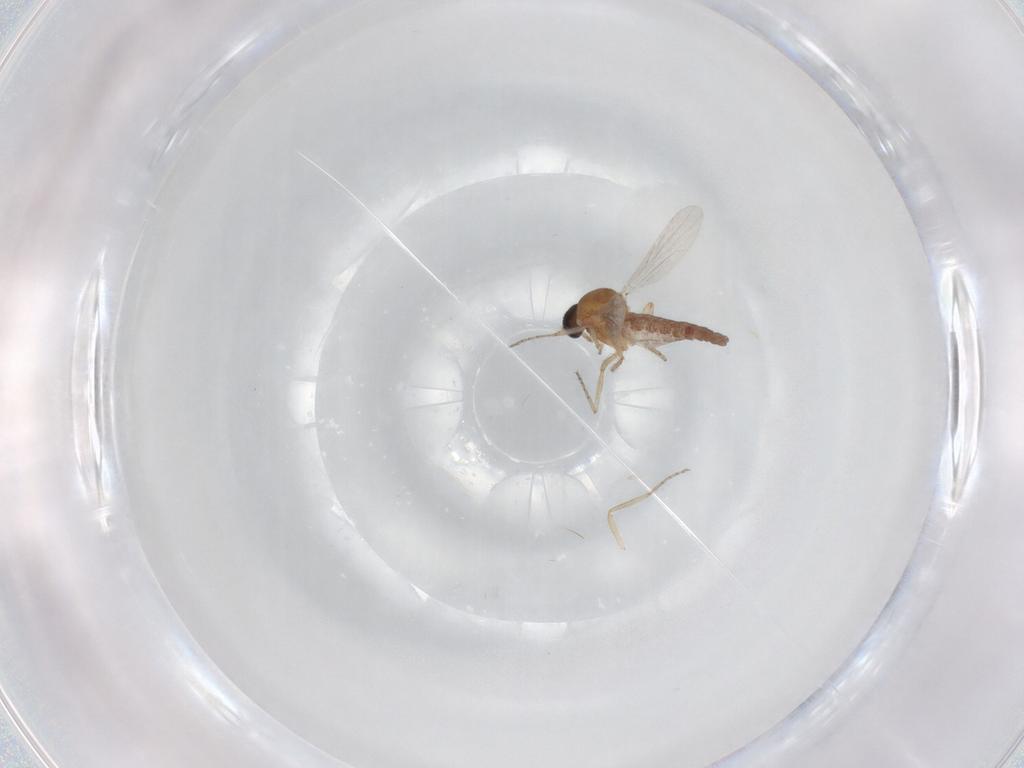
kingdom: Animalia
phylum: Arthropoda
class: Insecta
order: Diptera
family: Ceratopogonidae
